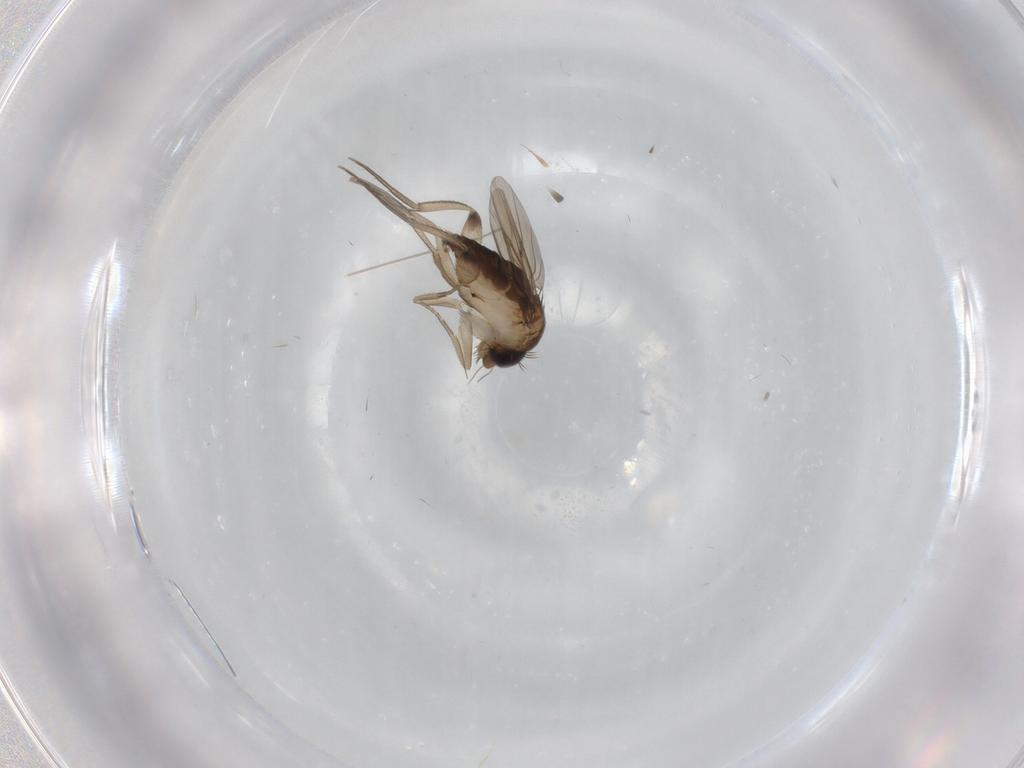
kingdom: Animalia
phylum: Arthropoda
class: Insecta
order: Diptera
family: Phoridae
